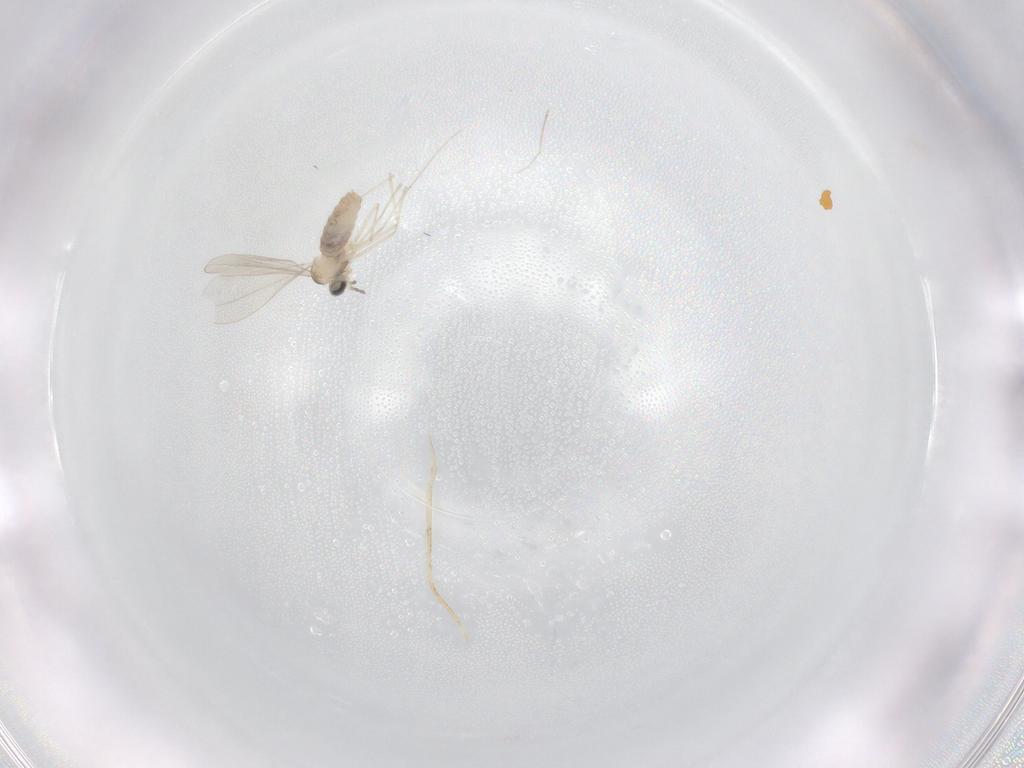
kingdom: Animalia
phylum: Arthropoda
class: Insecta
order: Diptera
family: Cecidomyiidae
